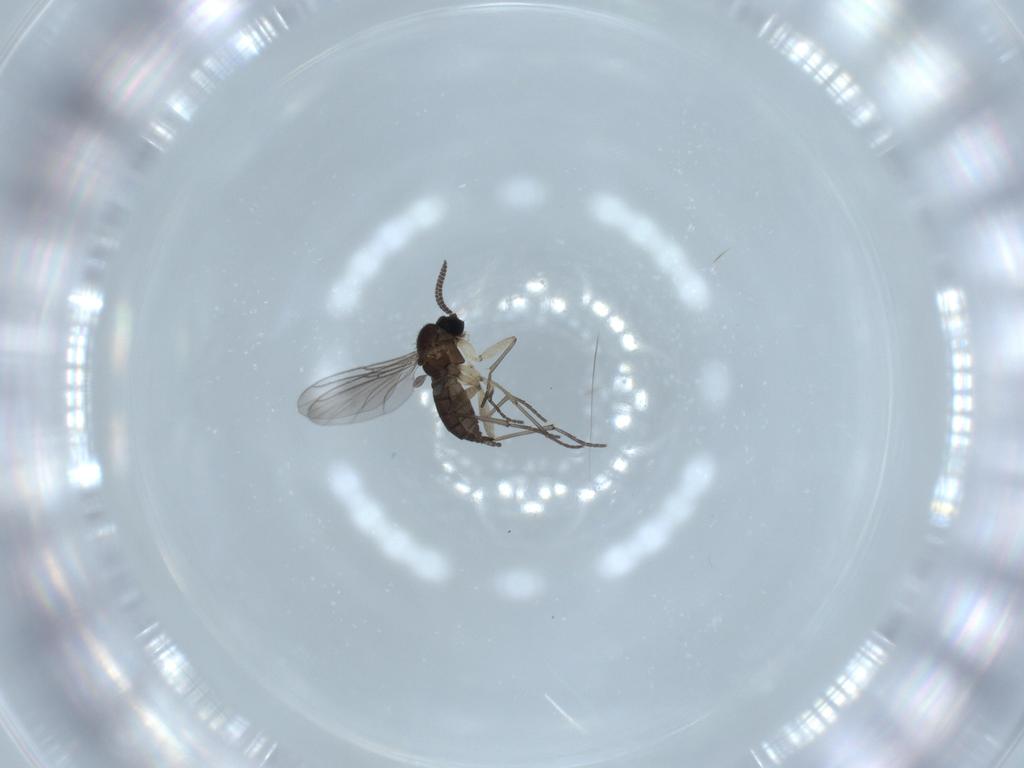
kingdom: Animalia
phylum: Arthropoda
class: Insecta
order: Diptera
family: Sciaridae
